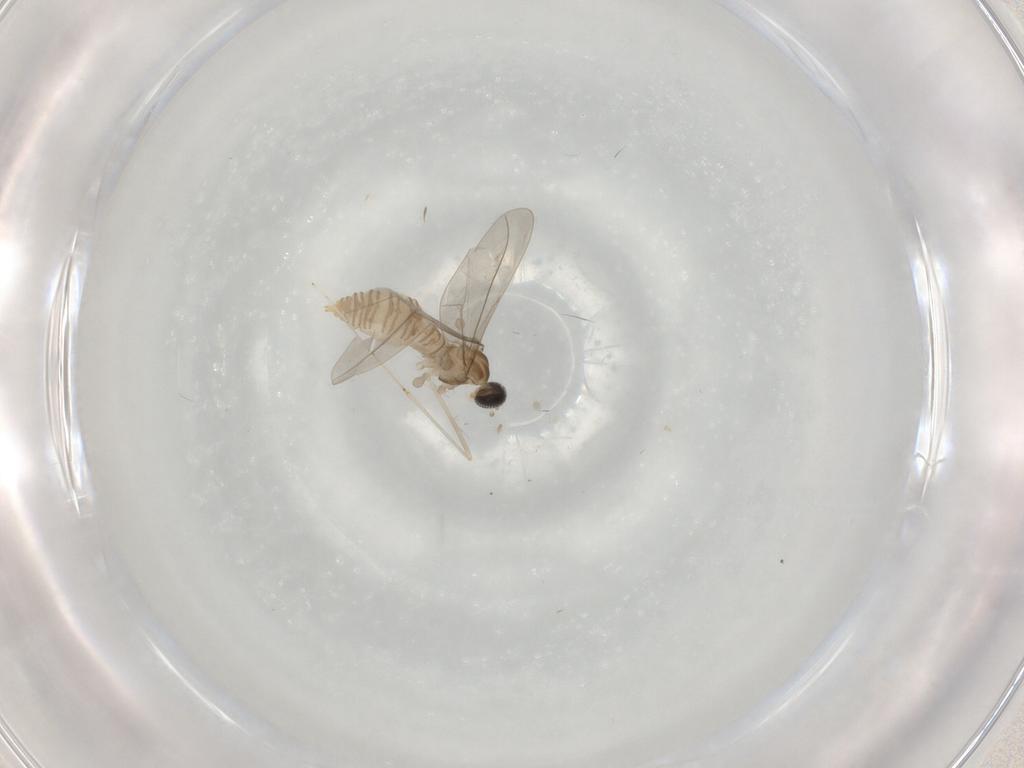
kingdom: Animalia
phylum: Arthropoda
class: Insecta
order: Diptera
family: Cecidomyiidae
